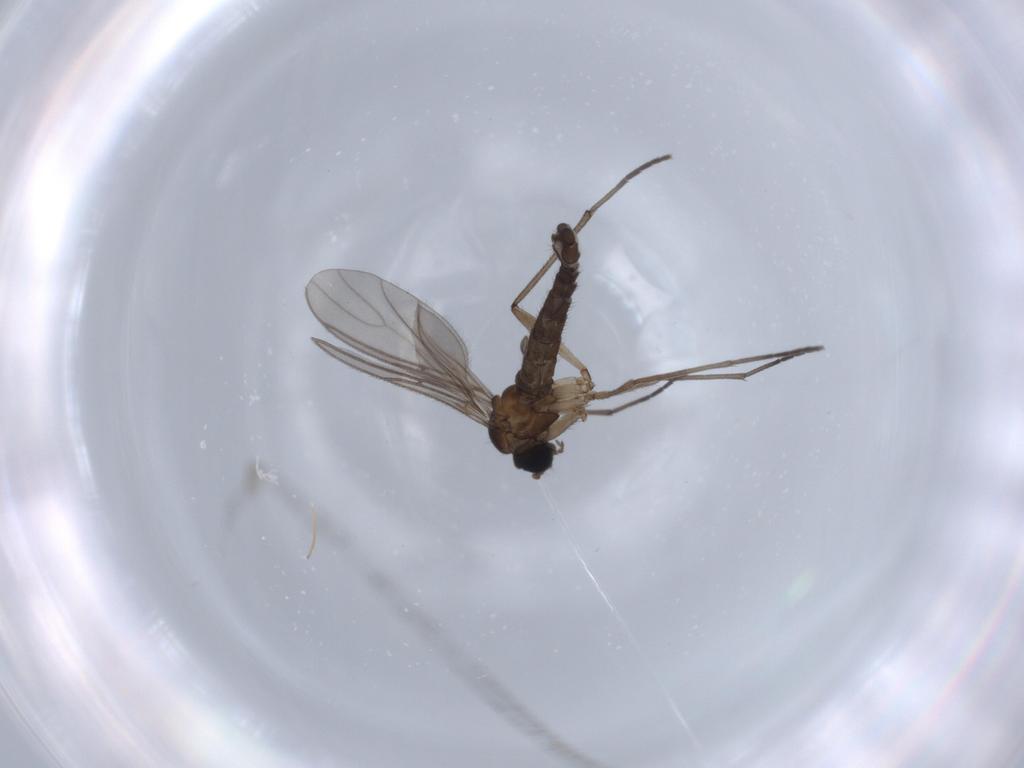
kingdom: Animalia
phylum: Arthropoda
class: Insecta
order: Diptera
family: Sciaridae
